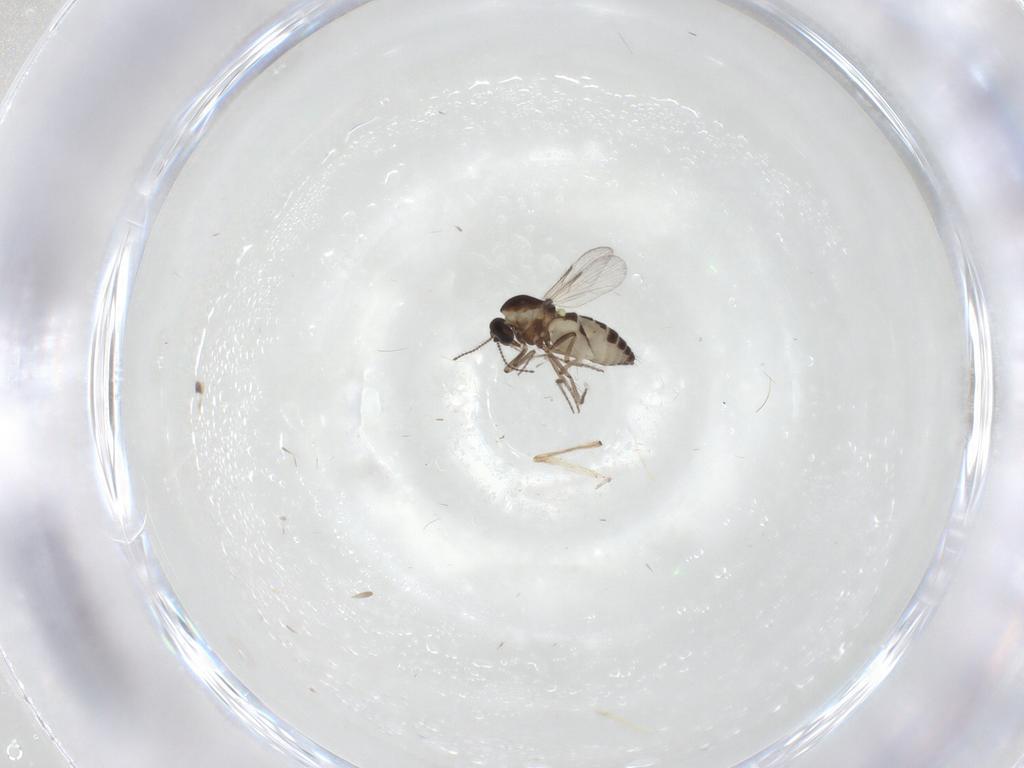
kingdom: Animalia
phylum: Arthropoda
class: Insecta
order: Diptera
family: Ceratopogonidae
